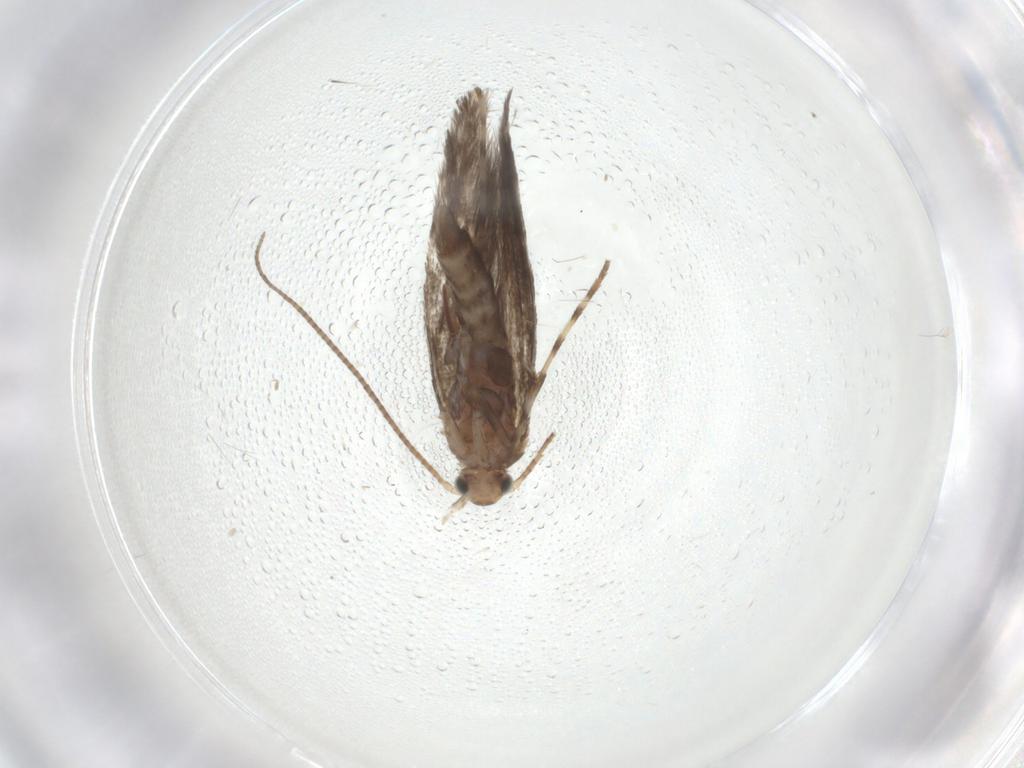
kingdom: Animalia
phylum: Arthropoda
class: Insecta
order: Lepidoptera
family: Gracillariidae
